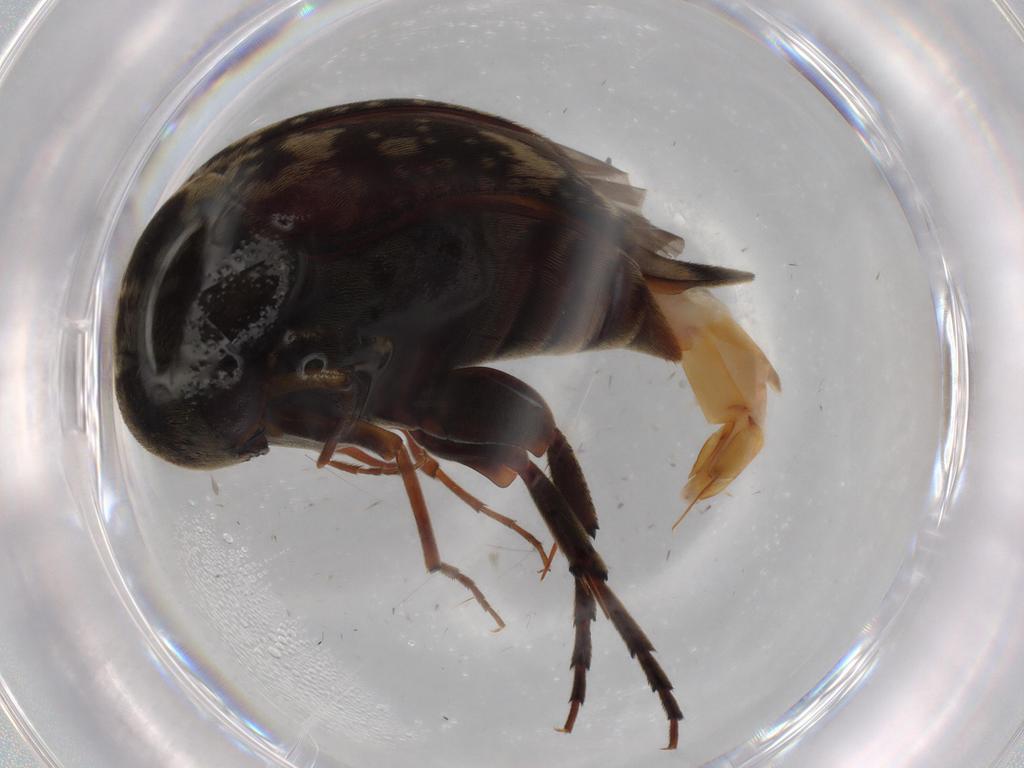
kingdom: Animalia
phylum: Arthropoda
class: Insecta
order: Coleoptera
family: Mordellidae
